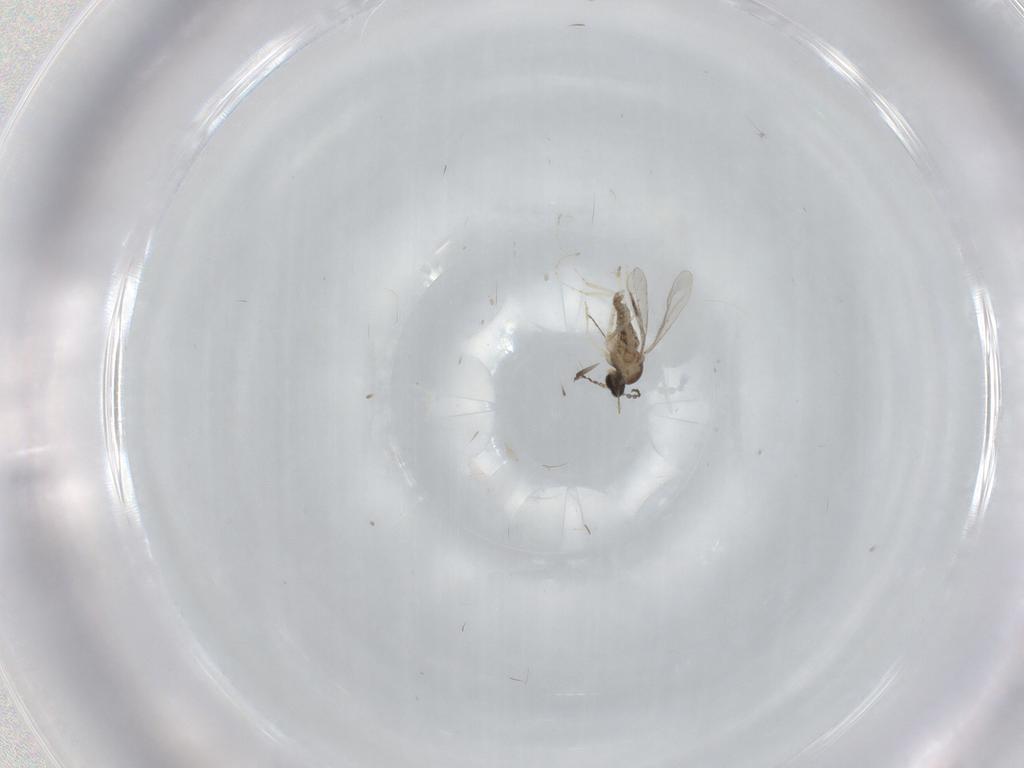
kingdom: Animalia
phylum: Arthropoda
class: Insecta
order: Diptera
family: Cecidomyiidae
